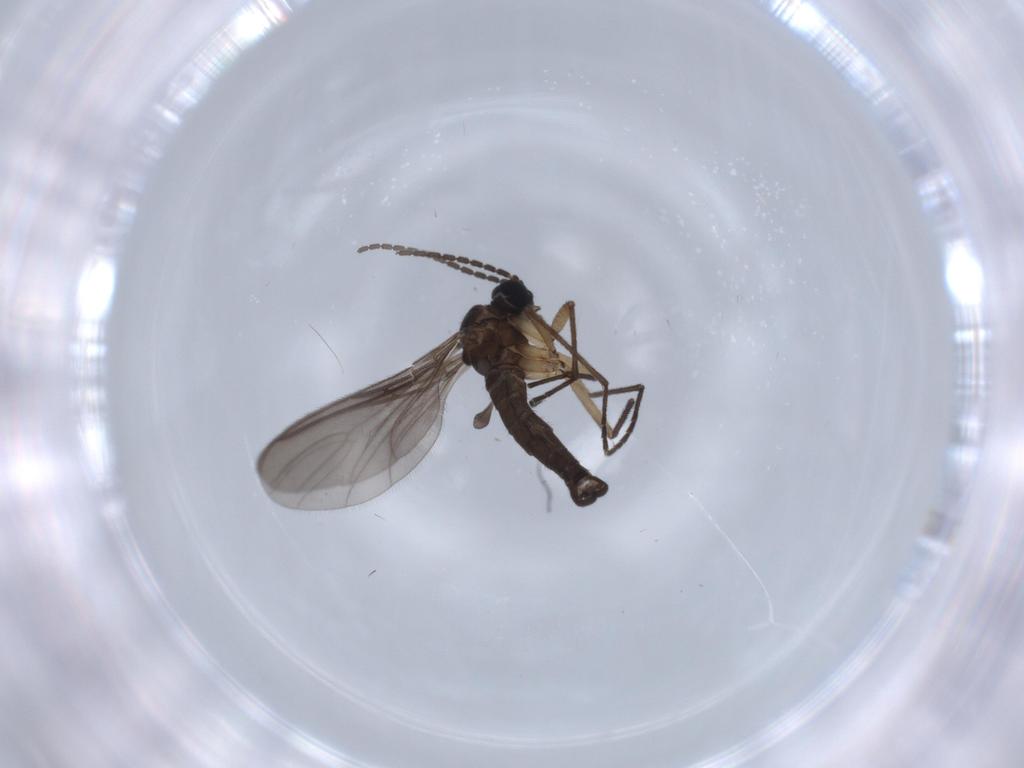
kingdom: Animalia
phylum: Arthropoda
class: Insecta
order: Diptera
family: Sciaridae
